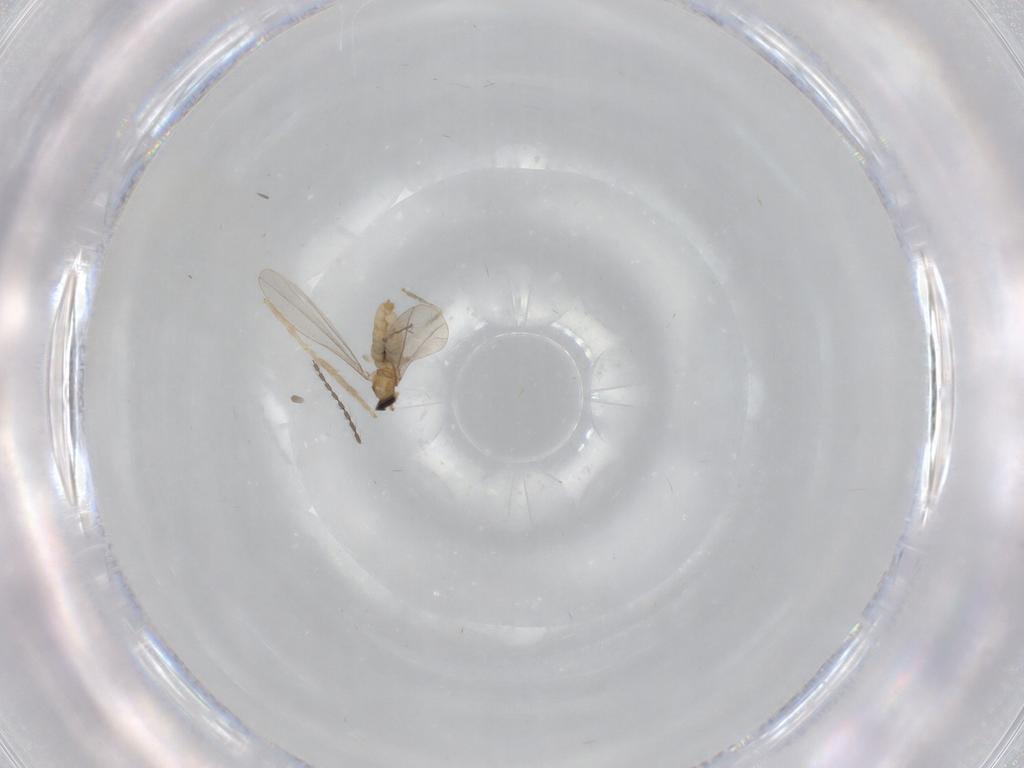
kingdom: Animalia
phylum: Arthropoda
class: Insecta
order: Diptera
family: Cecidomyiidae
